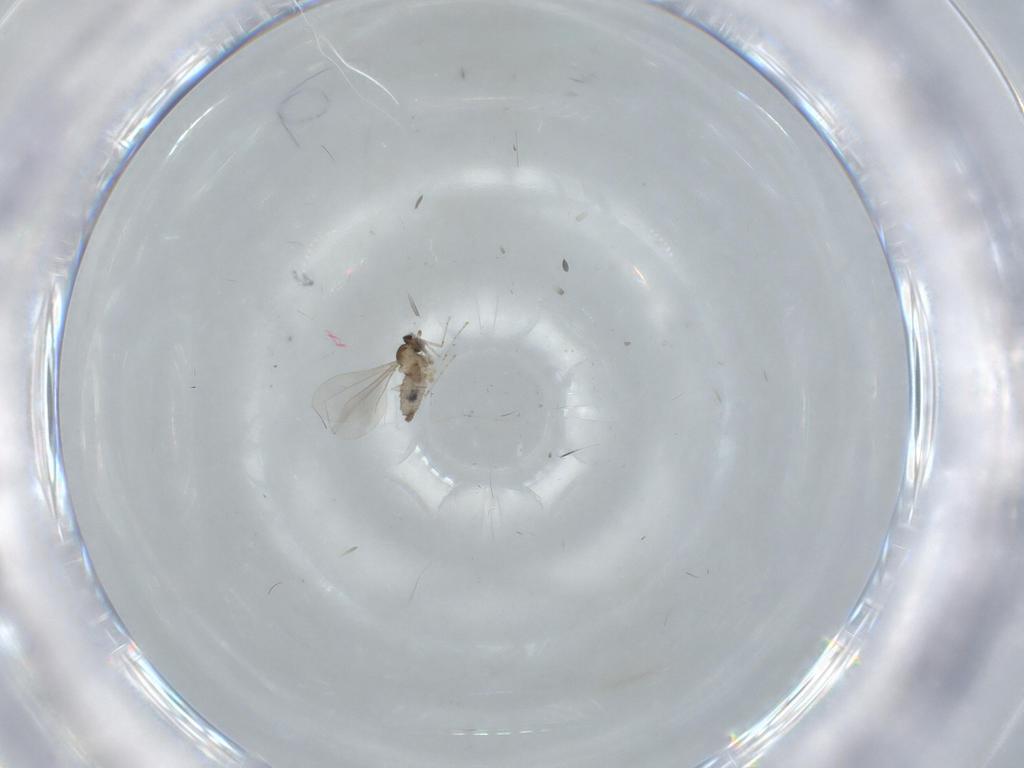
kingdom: Animalia
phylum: Arthropoda
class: Insecta
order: Diptera
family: Cecidomyiidae
